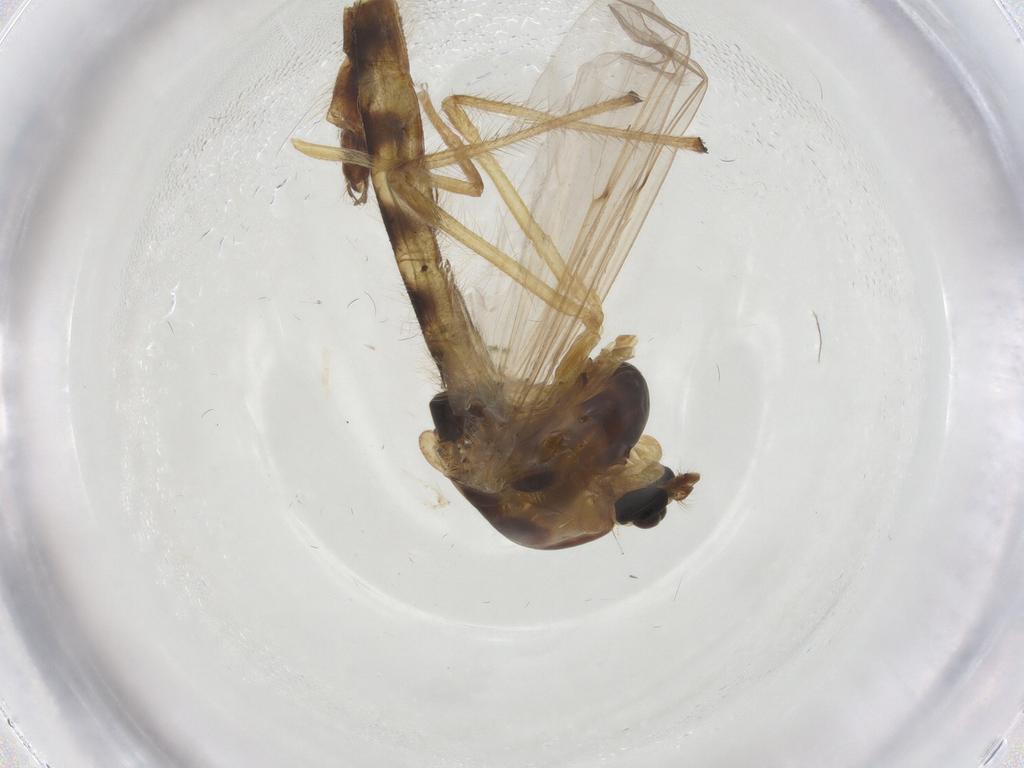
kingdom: Animalia
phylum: Arthropoda
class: Insecta
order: Diptera
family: Chironomidae
